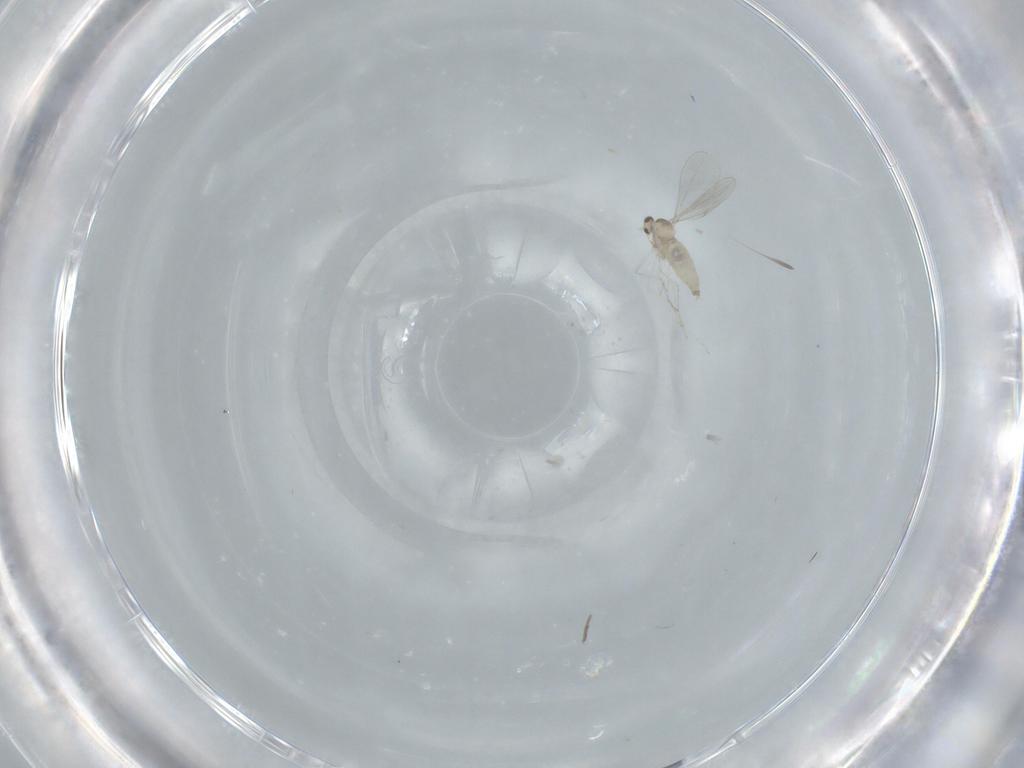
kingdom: Animalia
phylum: Arthropoda
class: Insecta
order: Diptera
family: Cecidomyiidae
